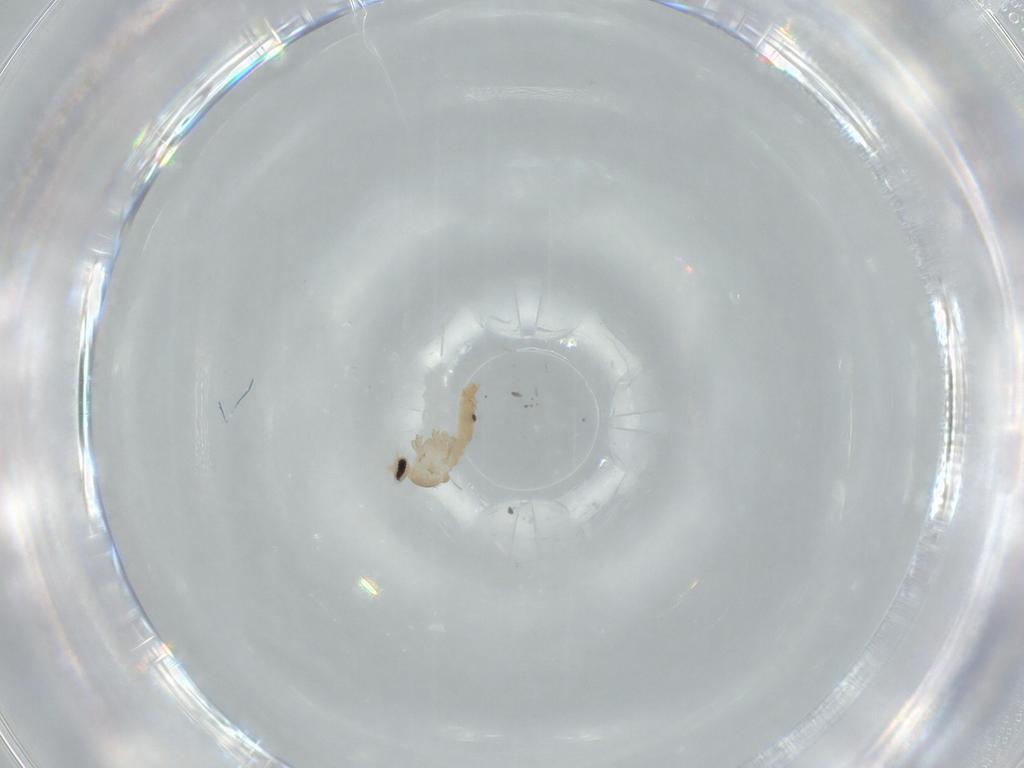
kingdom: Animalia
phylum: Arthropoda
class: Insecta
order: Diptera
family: Cecidomyiidae
